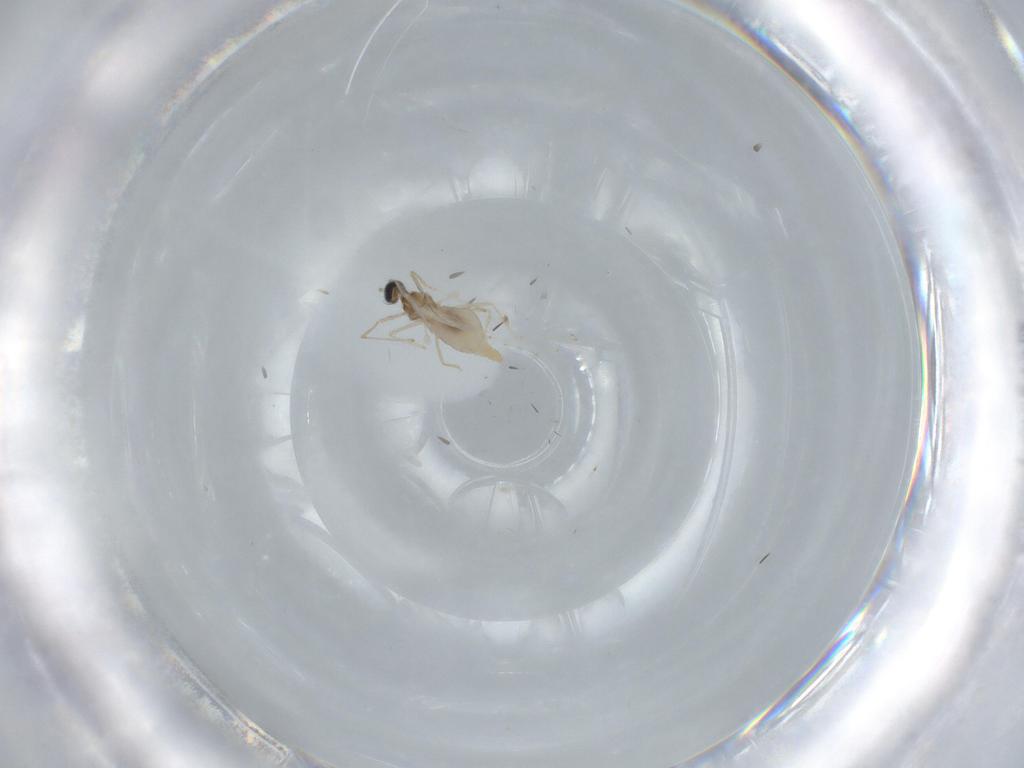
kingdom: Animalia
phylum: Arthropoda
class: Insecta
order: Diptera
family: Cecidomyiidae
